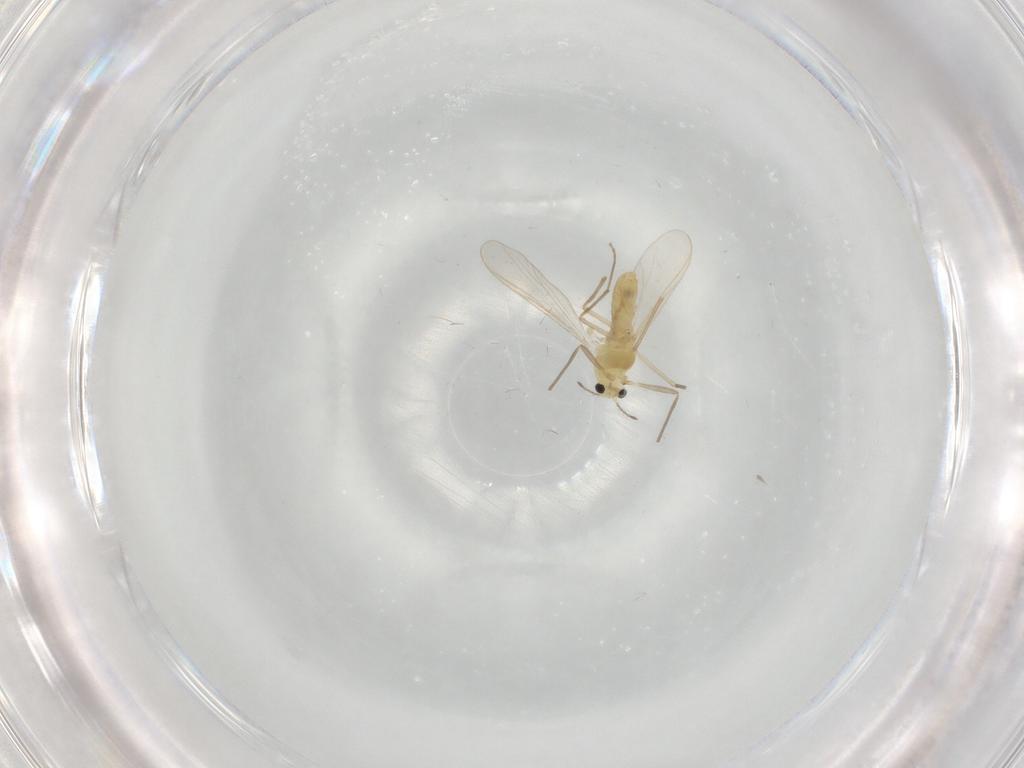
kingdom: Animalia
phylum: Arthropoda
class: Insecta
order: Diptera
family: Chironomidae
